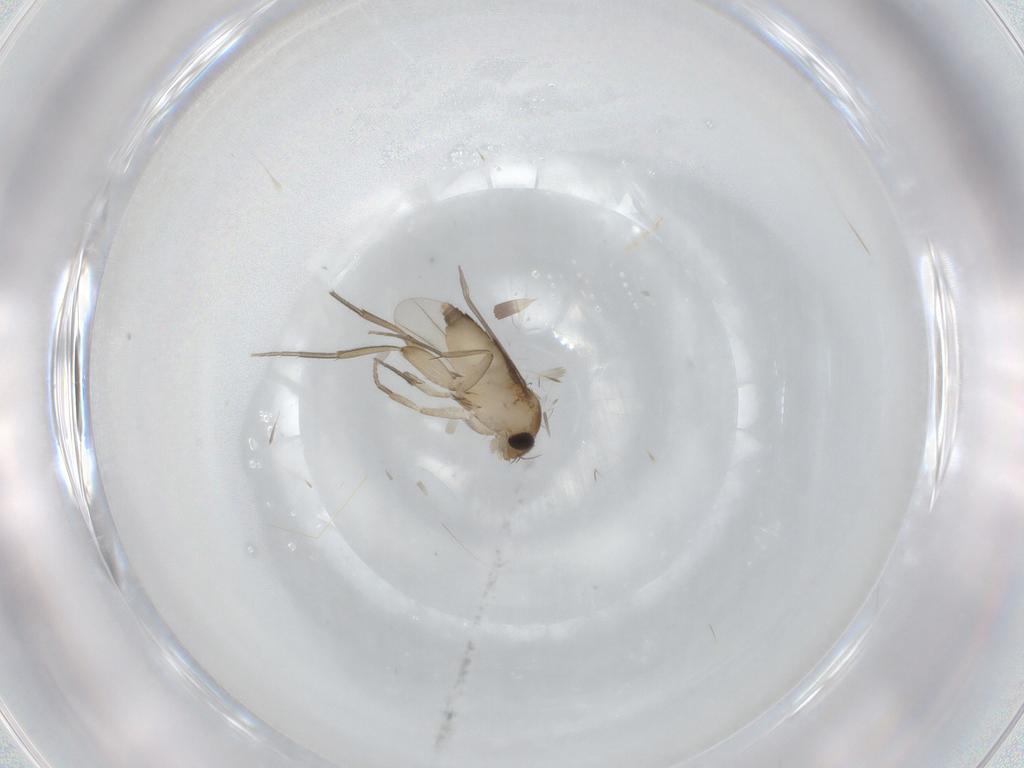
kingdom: Animalia
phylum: Arthropoda
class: Insecta
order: Diptera
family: Phoridae
